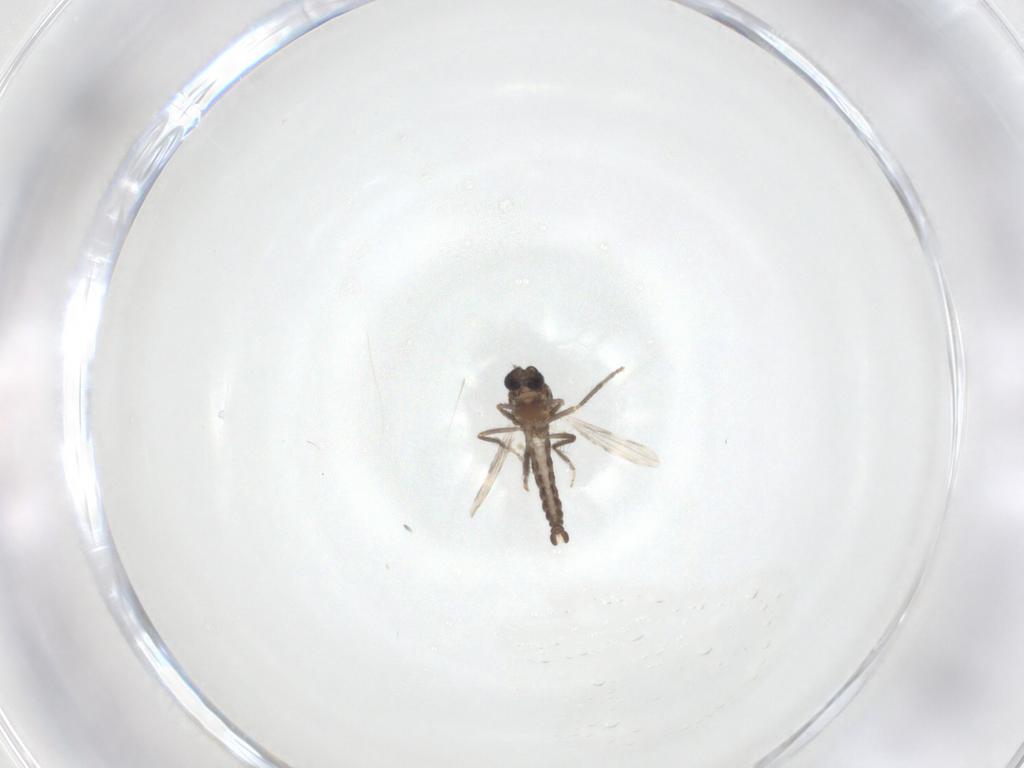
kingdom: Animalia
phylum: Arthropoda
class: Insecta
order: Diptera
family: Ceratopogonidae
